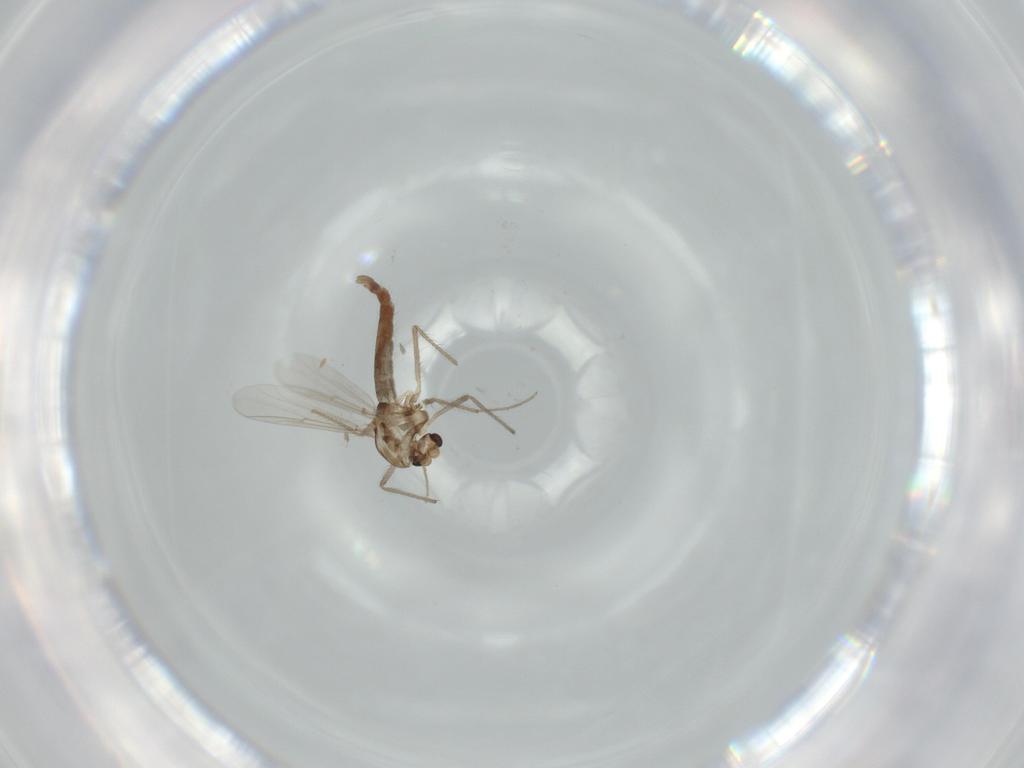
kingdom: Animalia
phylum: Arthropoda
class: Insecta
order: Diptera
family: Chironomidae
